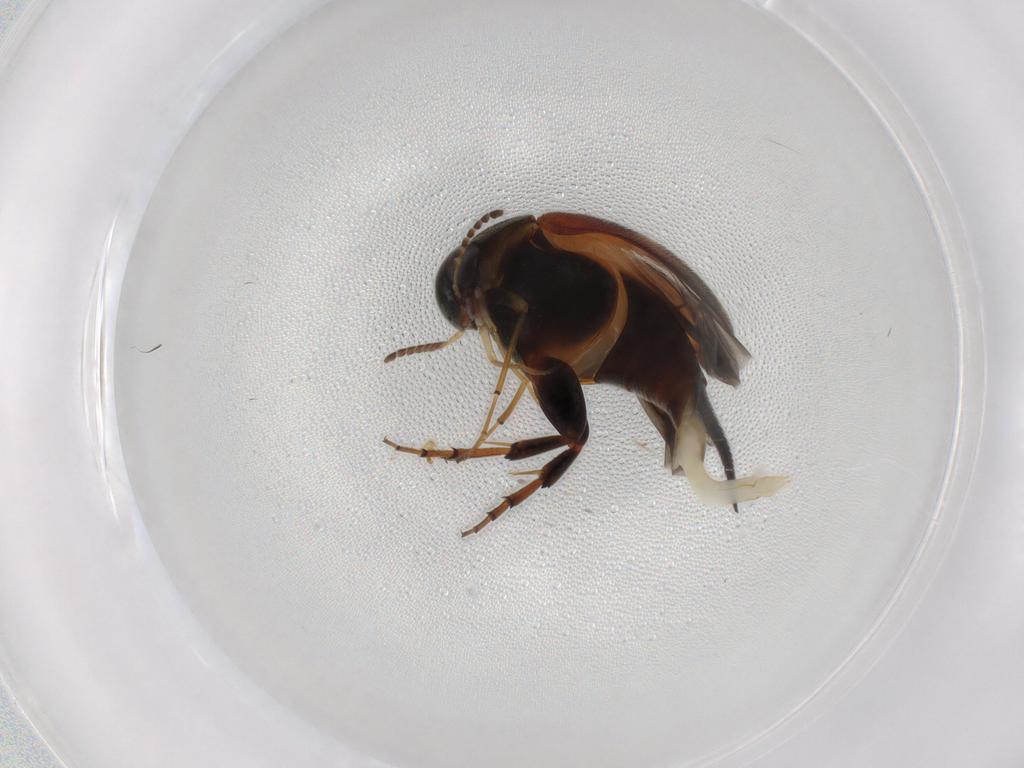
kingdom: Animalia
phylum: Arthropoda
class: Insecta
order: Coleoptera
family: Mordellidae
